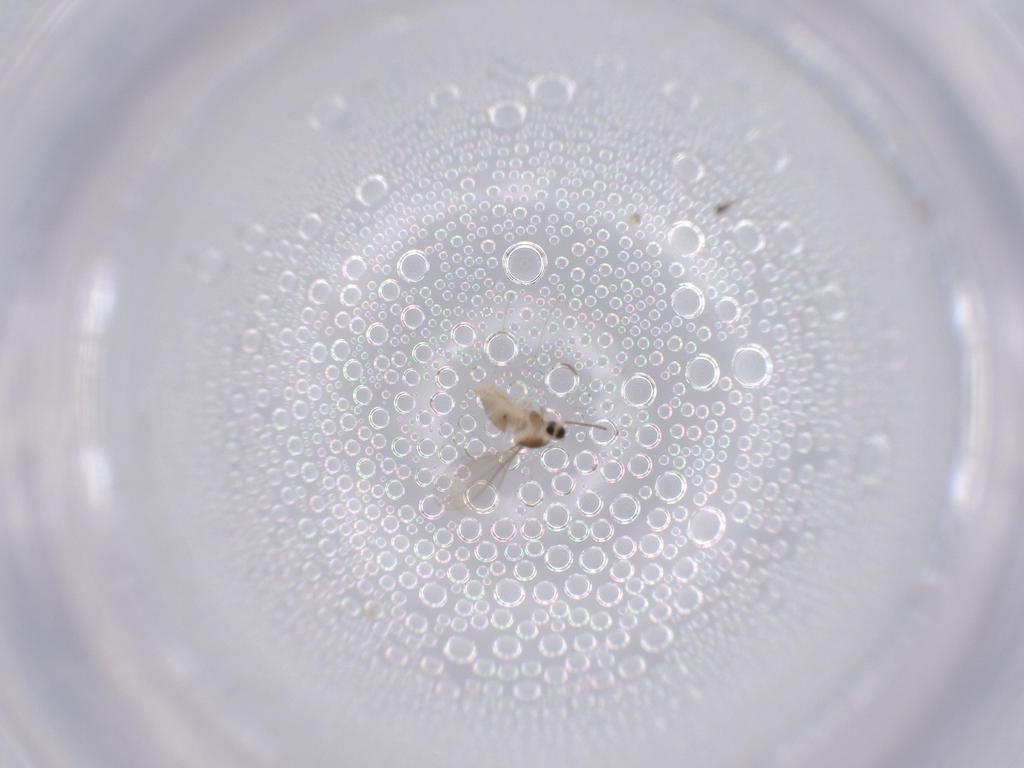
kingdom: Animalia
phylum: Arthropoda
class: Insecta
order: Diptera
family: Cecidomyiidae
